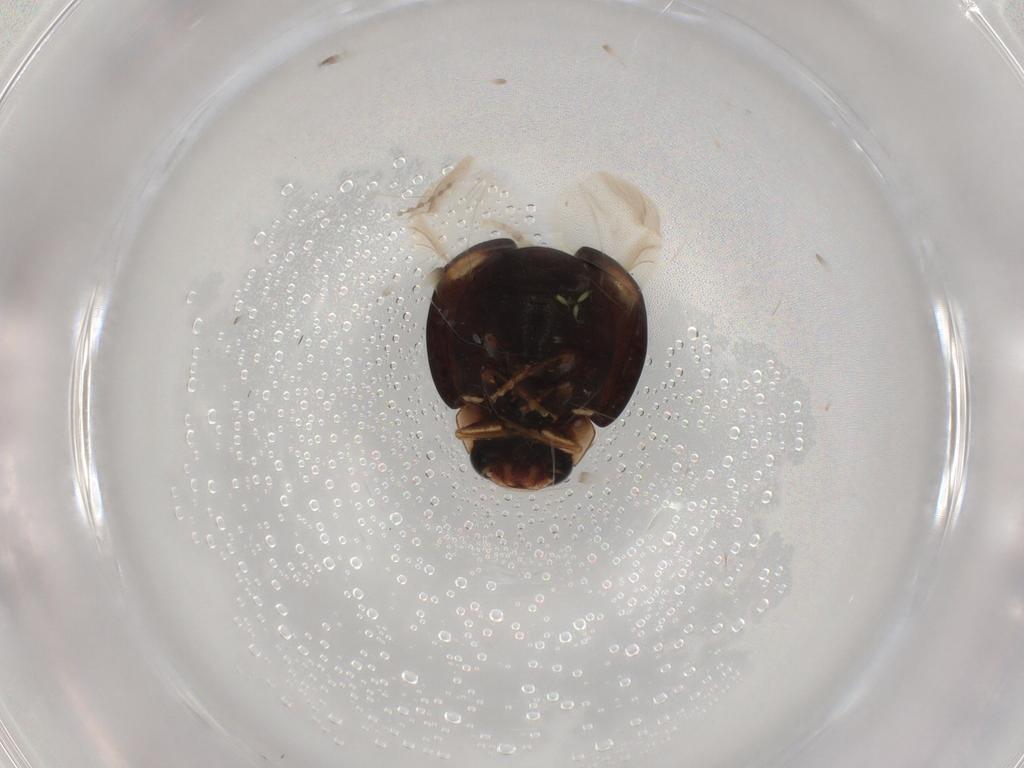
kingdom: Animalia
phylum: Arthropoda
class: Insecta
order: Coleoptera
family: Coccinellidae
